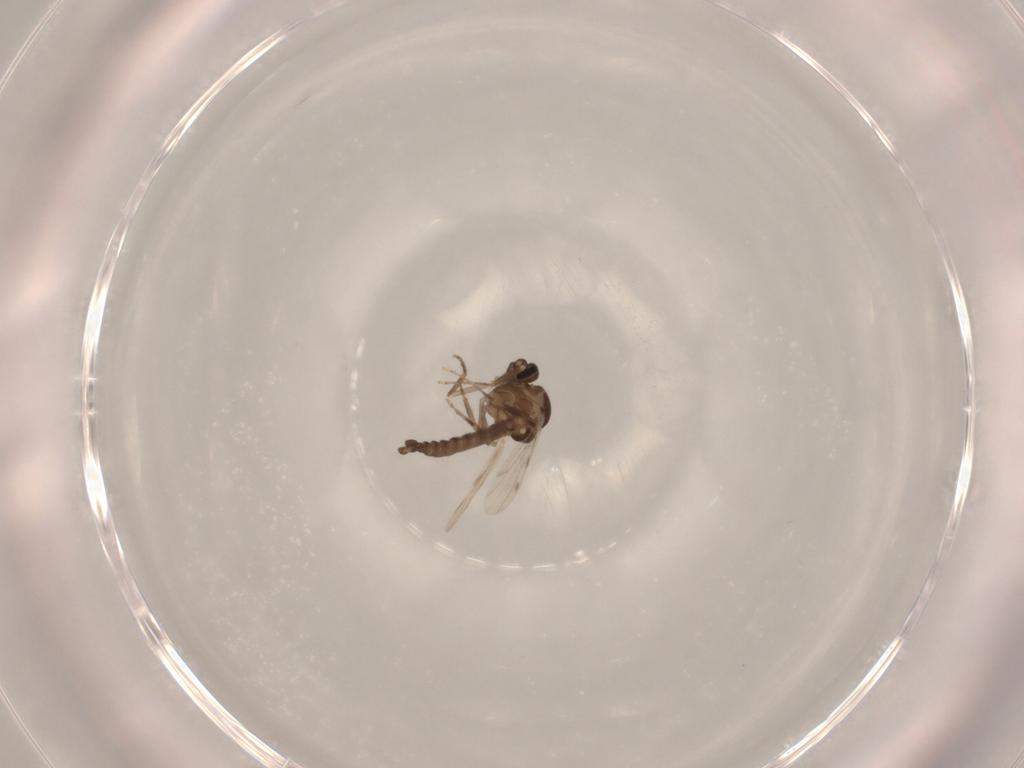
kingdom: Animalia
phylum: Arthropoda
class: Insecta
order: Diptera
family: Ceratopogonidae
